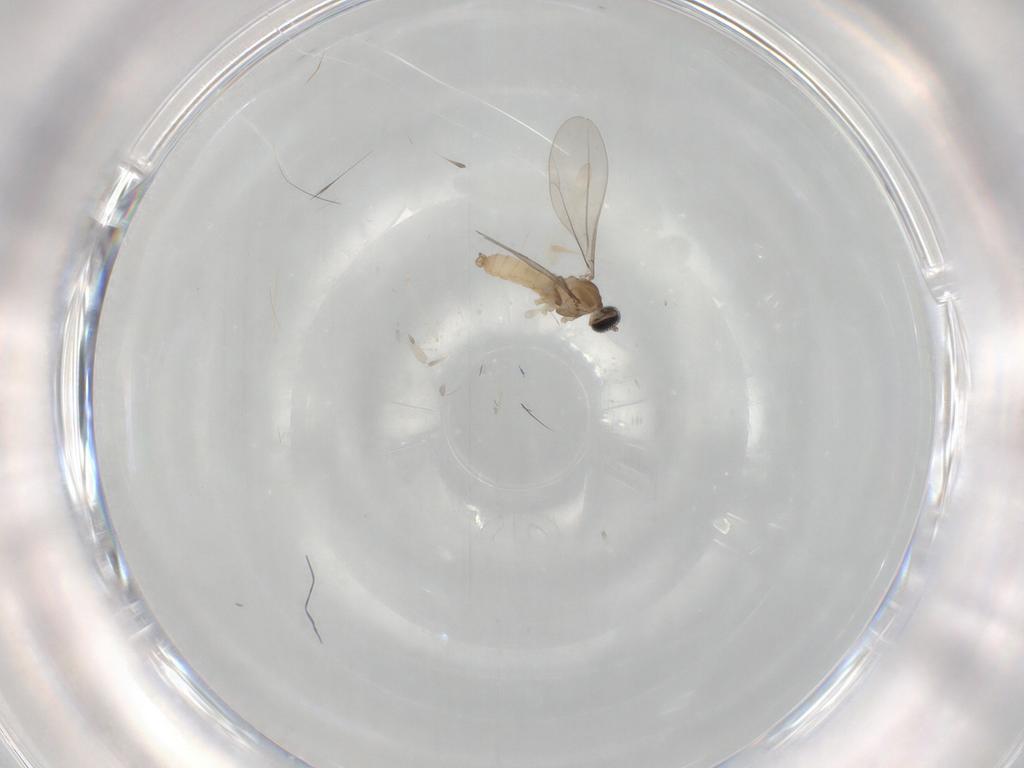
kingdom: Animalia
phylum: Arthropoda
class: Insecta
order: Diptera
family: Cecidomyiidae
